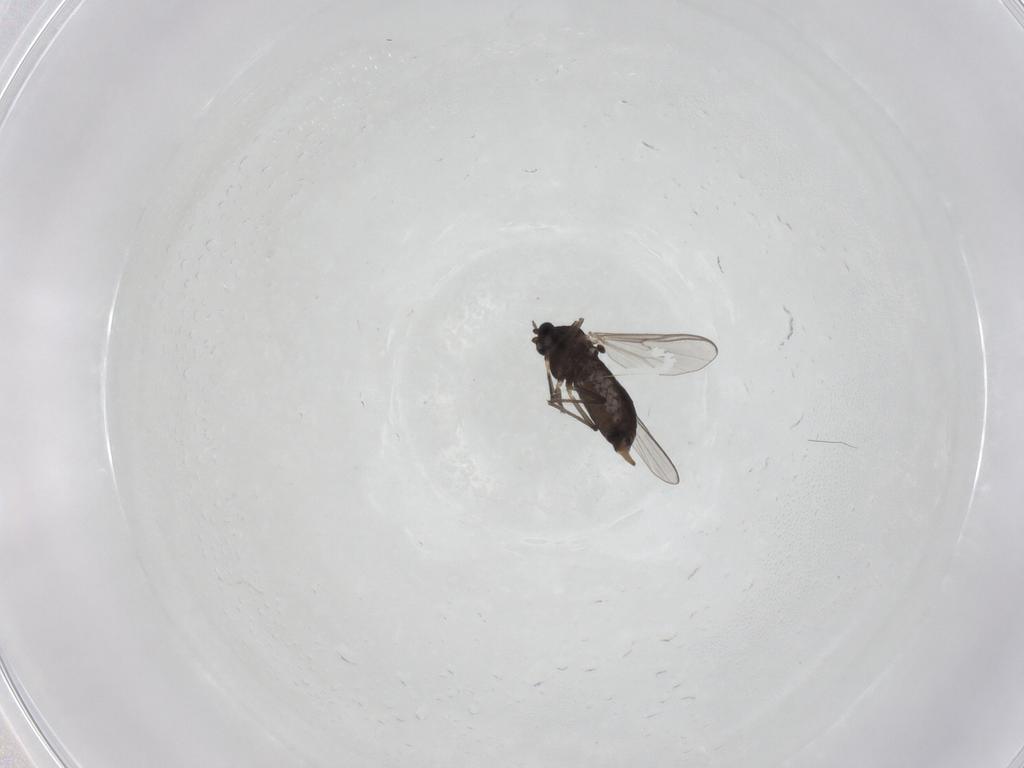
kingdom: Animalia
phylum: Arthropoda
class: Insecta
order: Diptera
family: Chironomidae
